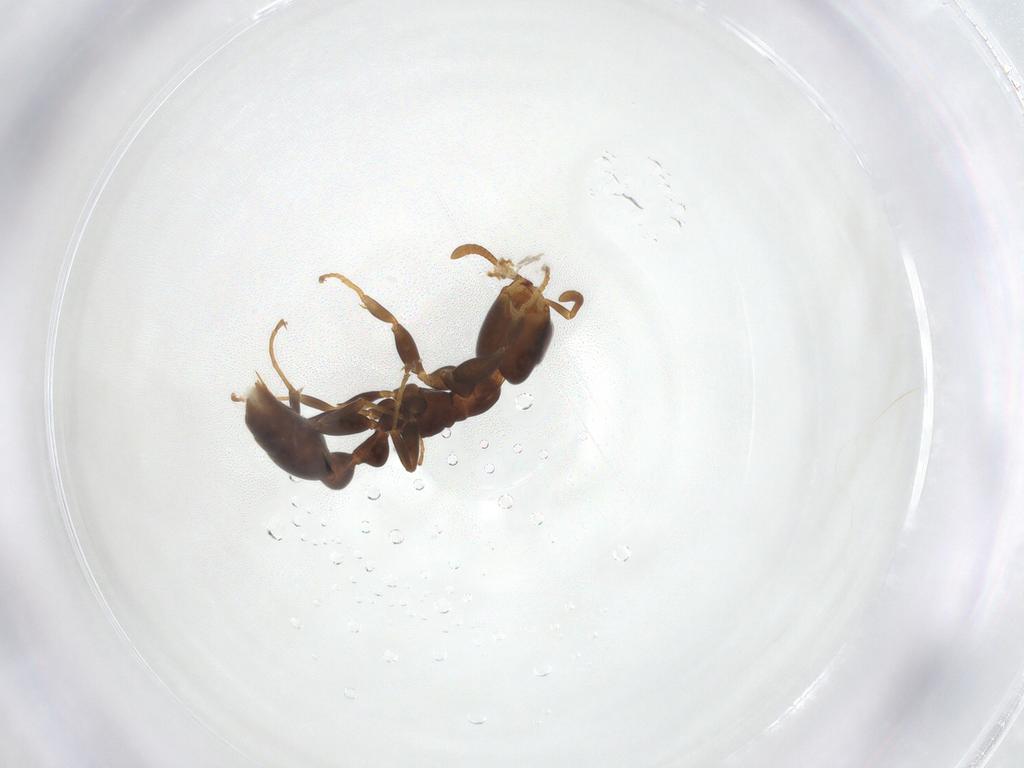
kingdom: Animalia
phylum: Arthropoda
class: Insecta
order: Hymenoptera
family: Formicidae
